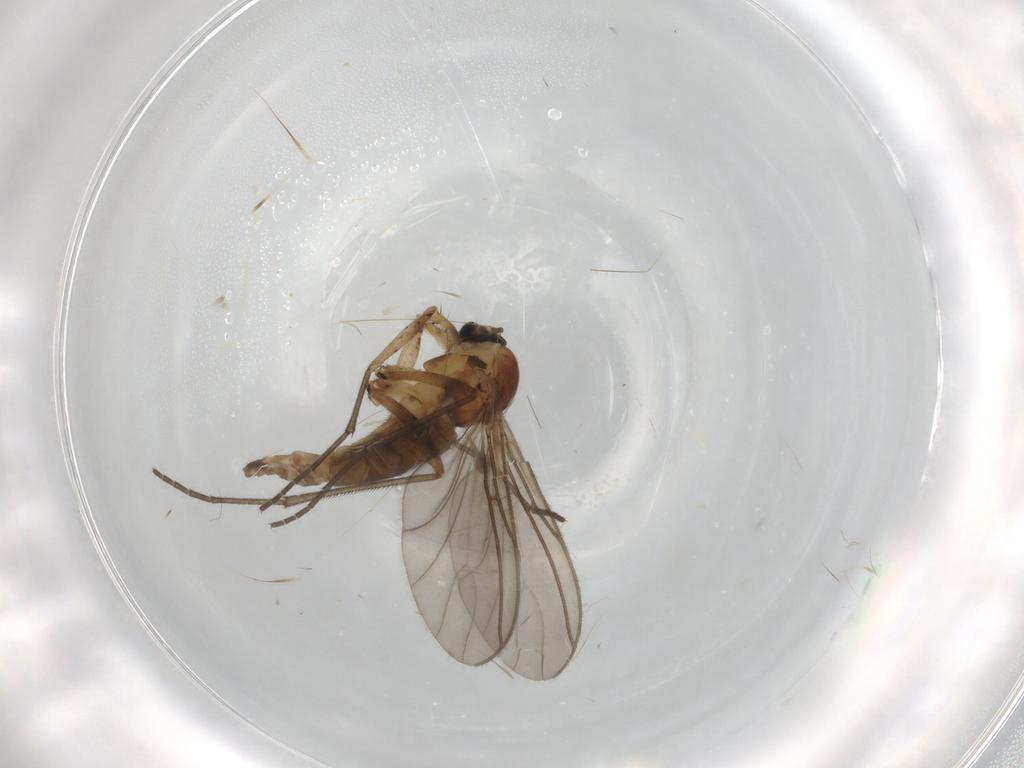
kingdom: Animalia
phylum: Arthropoda
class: Insecta
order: Diptera
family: Sciaridae
